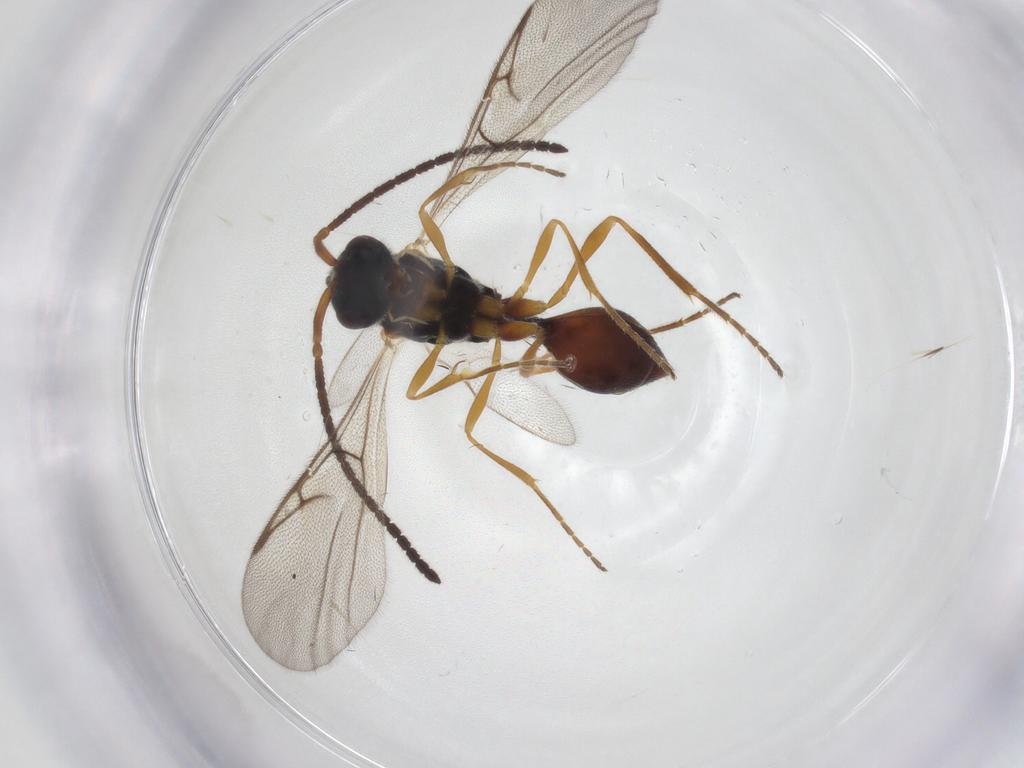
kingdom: Animalia
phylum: Arthropoda
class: Insecta
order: Hymenoptera
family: Diapriidae
